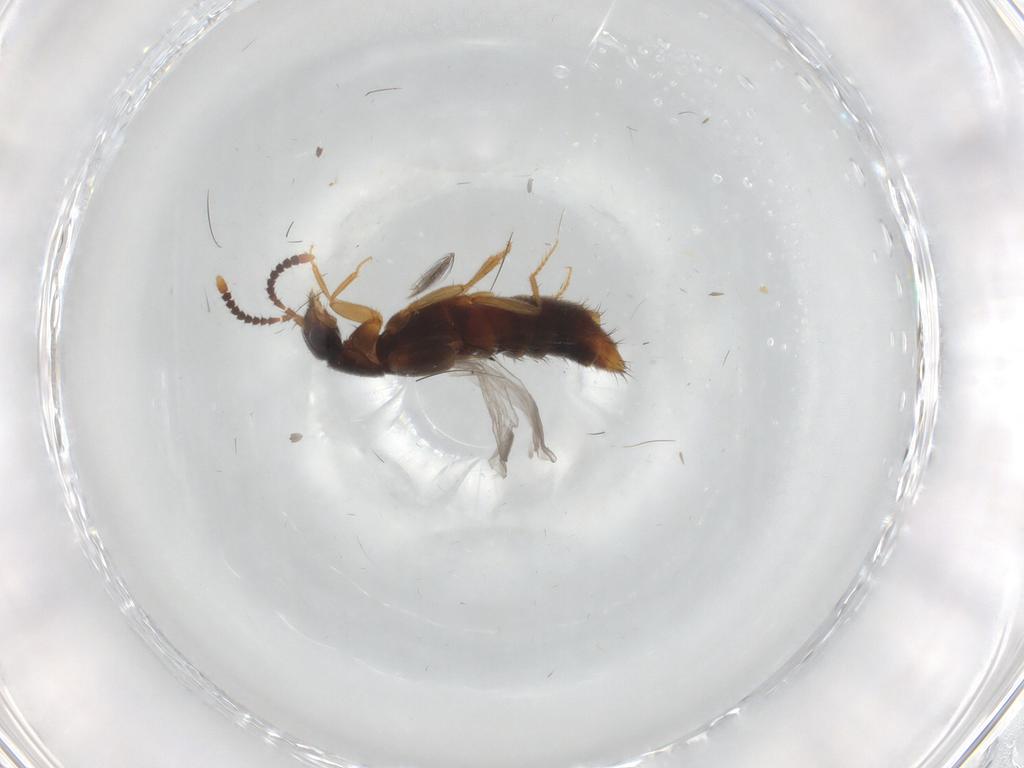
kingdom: Animalia
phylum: Arthropoda
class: Insecta
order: Coleoptera
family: Staphylinidae
